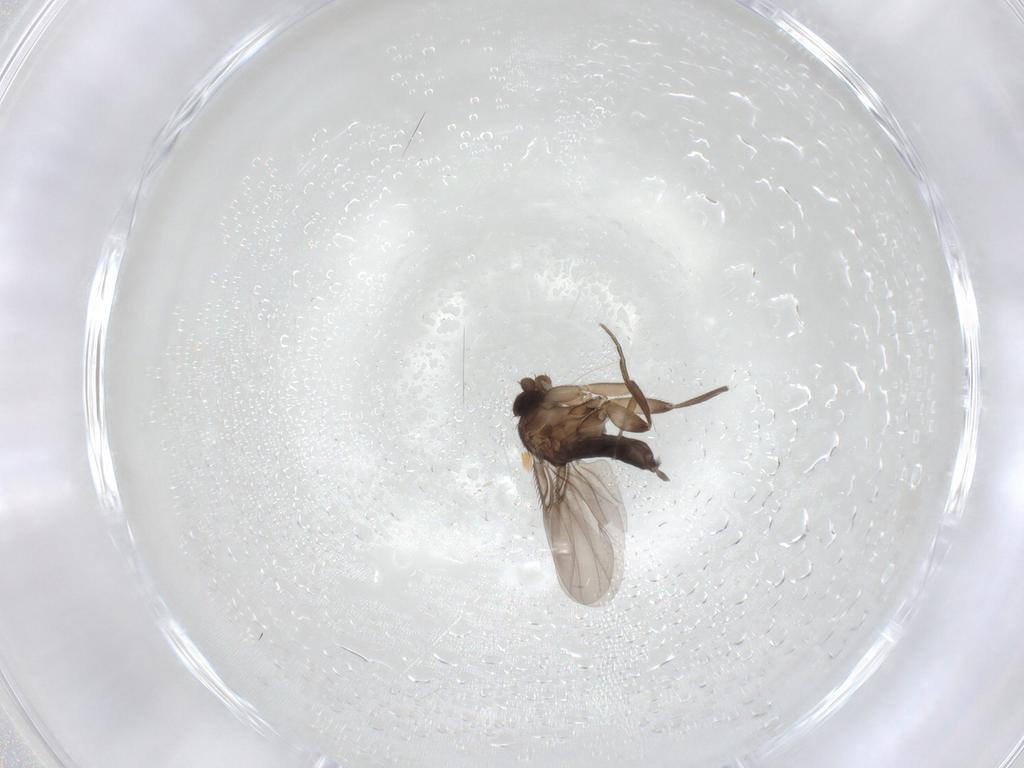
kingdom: Animalia
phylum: Arthropoda
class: Insecta
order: Diptera
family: Phoridae
